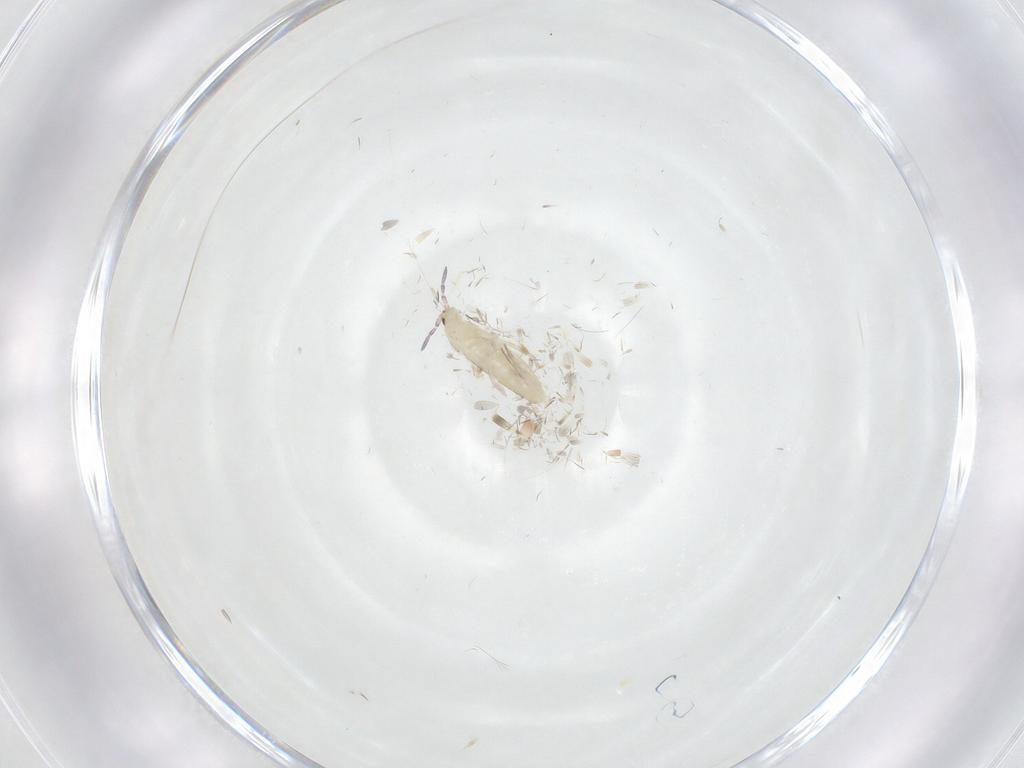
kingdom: Animalia
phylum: Arthropoda
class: Collembola
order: Entomobryomorpha
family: Entomobryidae
